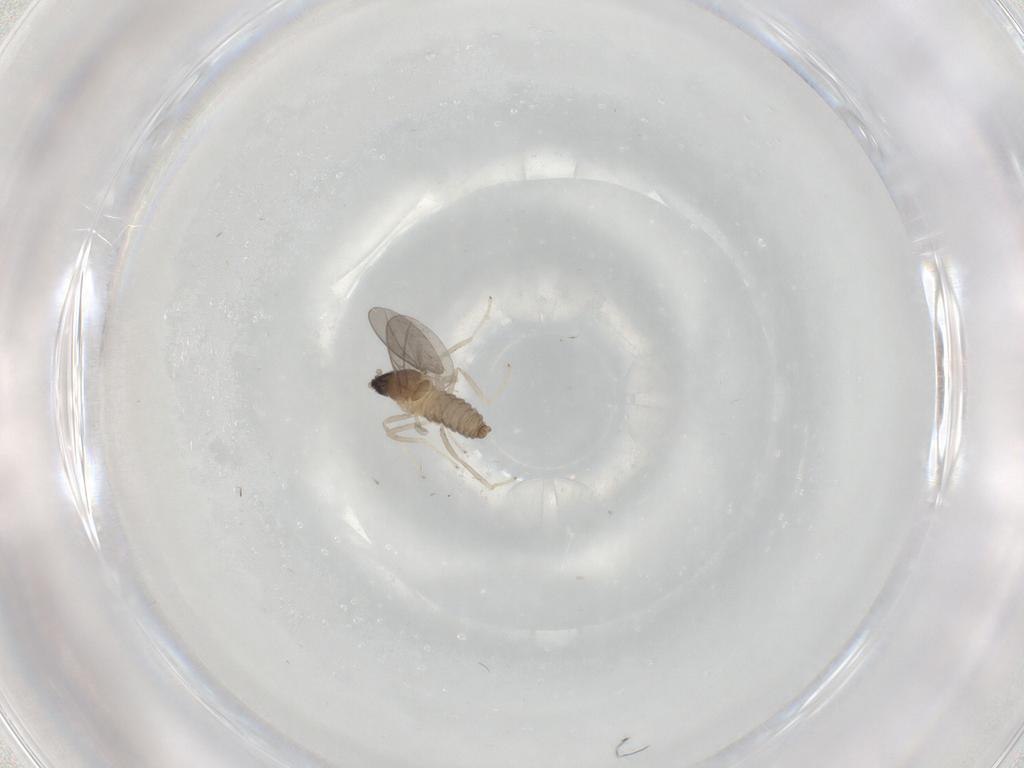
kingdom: Animalia
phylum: Arthropoda
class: Insecta
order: Diptera
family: Cecidomyiidae
